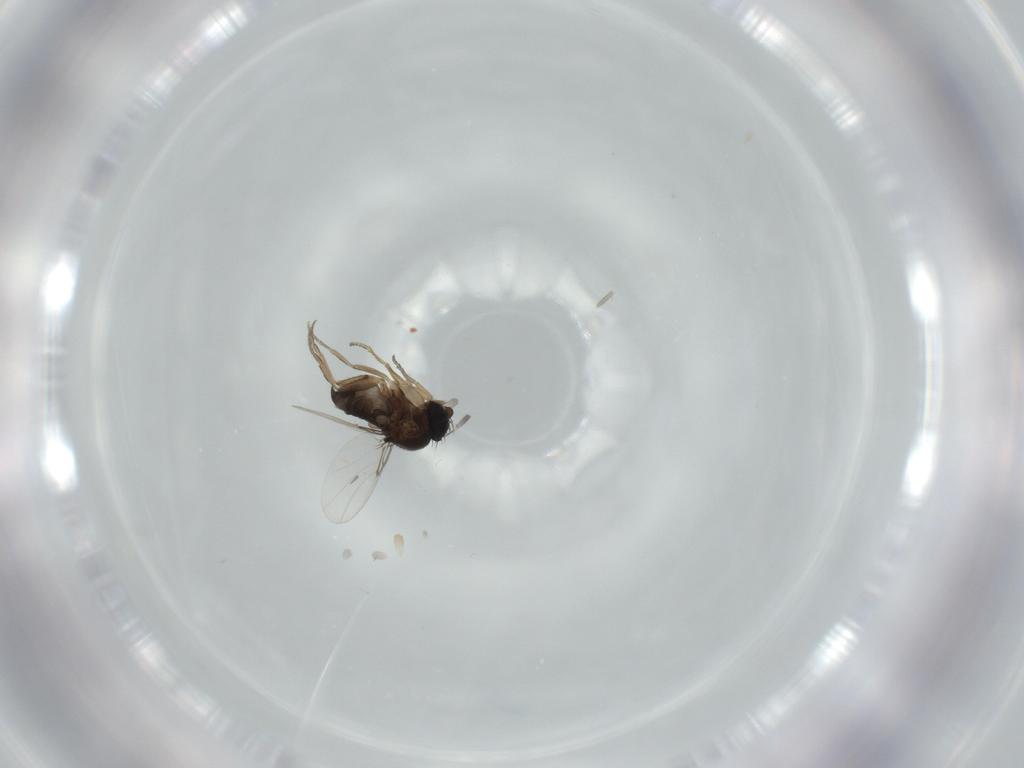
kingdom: Animalia
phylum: Arthropoda
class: Insecta
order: Diptera
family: Phoridae
